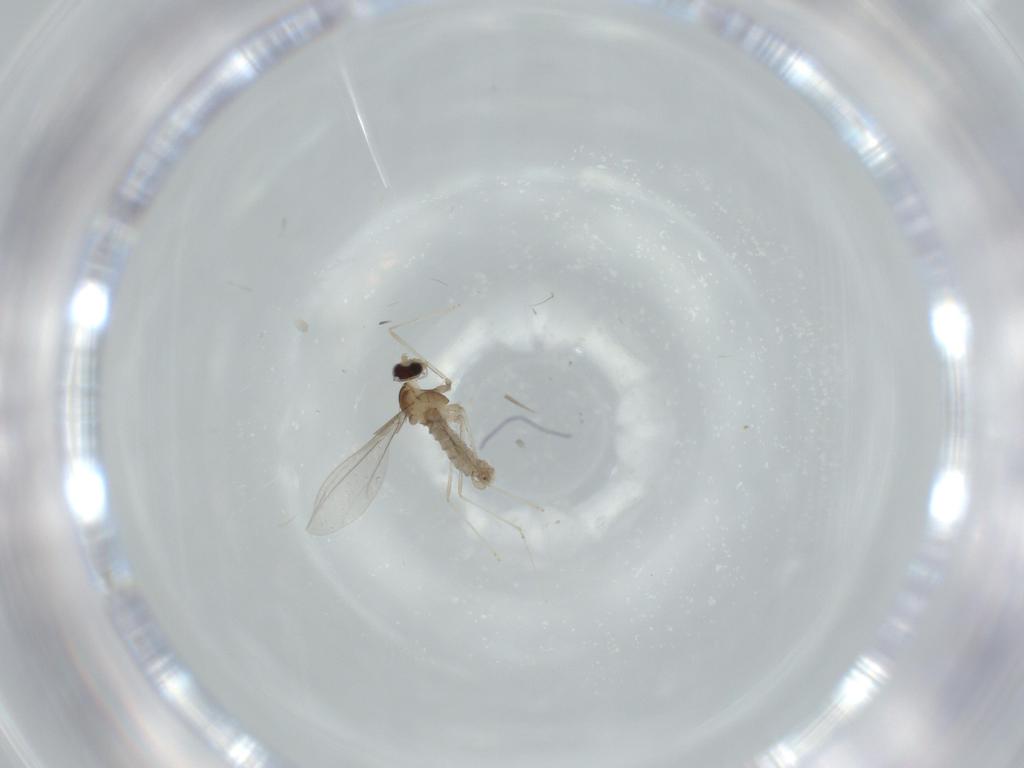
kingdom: Animalia
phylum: Arthropoda
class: Insecta
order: Diptera
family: Cecidomyiidae
